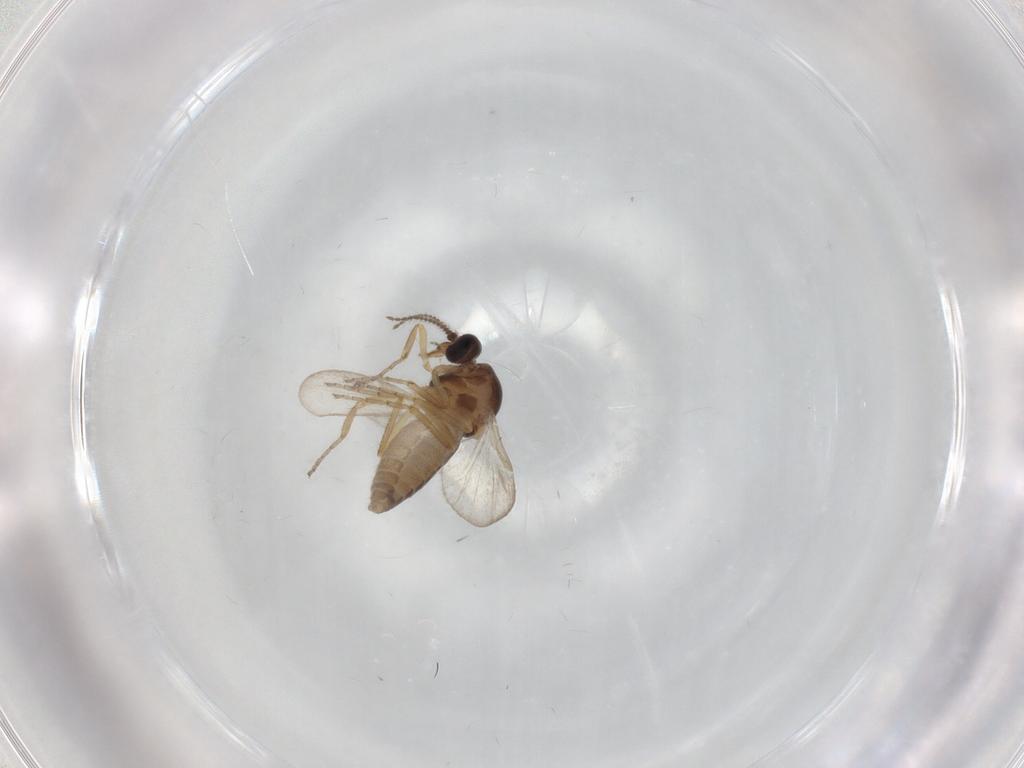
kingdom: Animalia
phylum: Arthropoda
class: Insecta
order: Diptera
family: Ceratopogonidae
